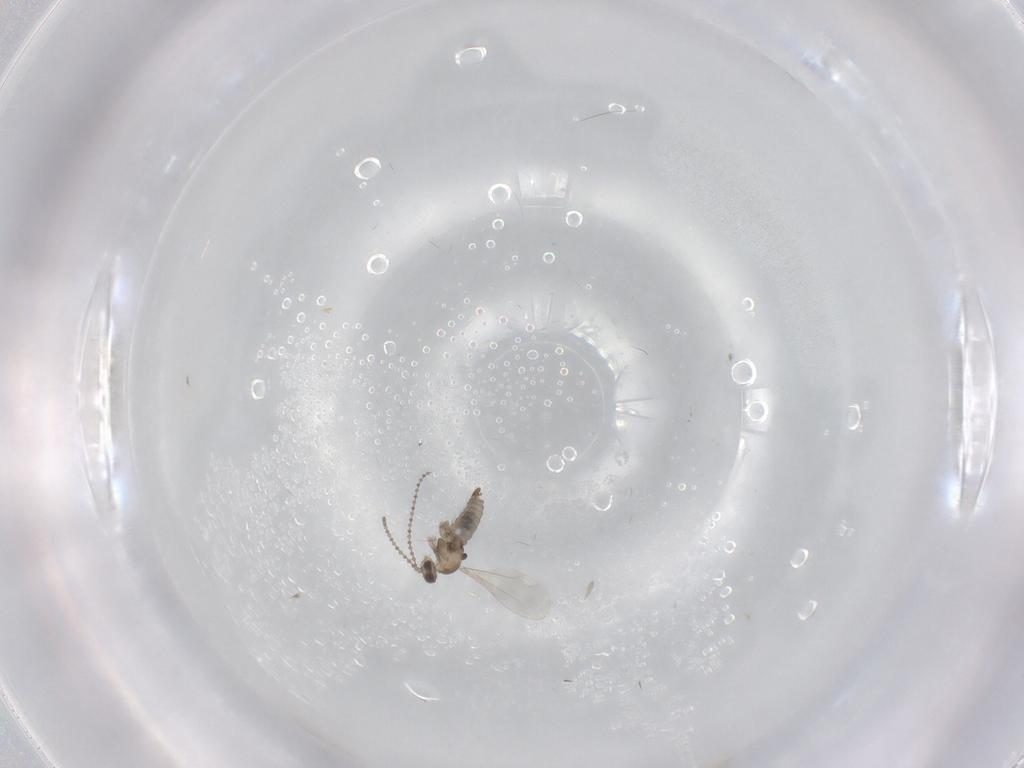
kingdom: Animalia
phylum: Arthropoda
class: Insecta
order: Diptera
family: Cecidomyiidae
